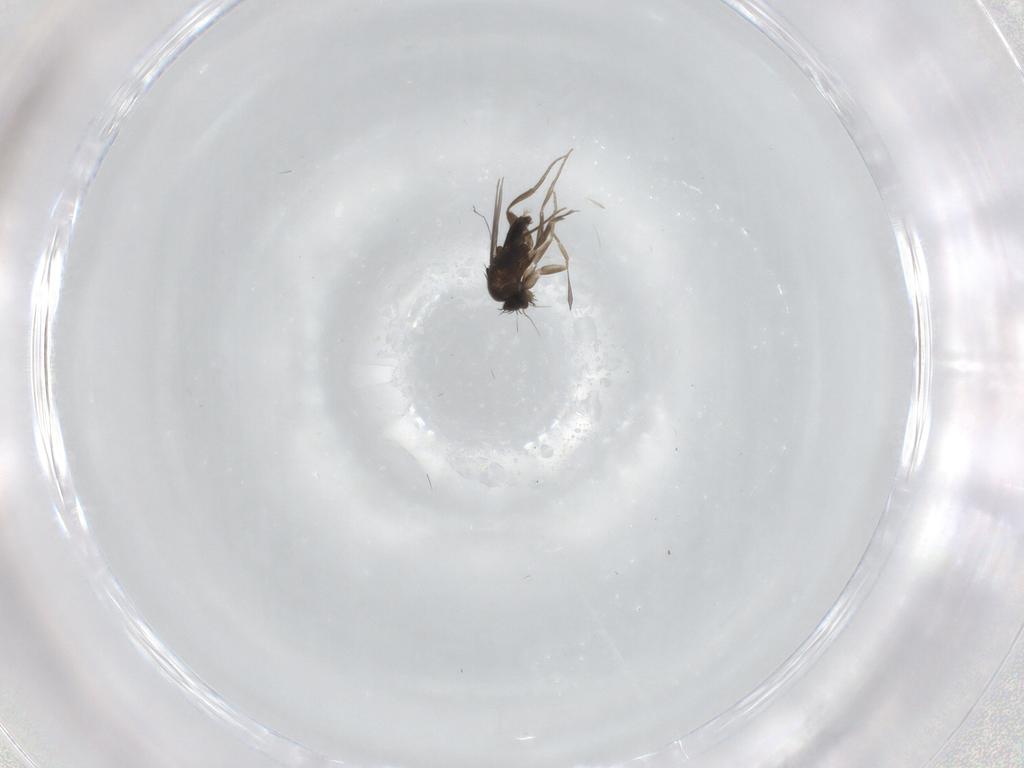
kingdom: Animalia
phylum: Arthropoda
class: Insecta
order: Diptera
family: Phoridae
